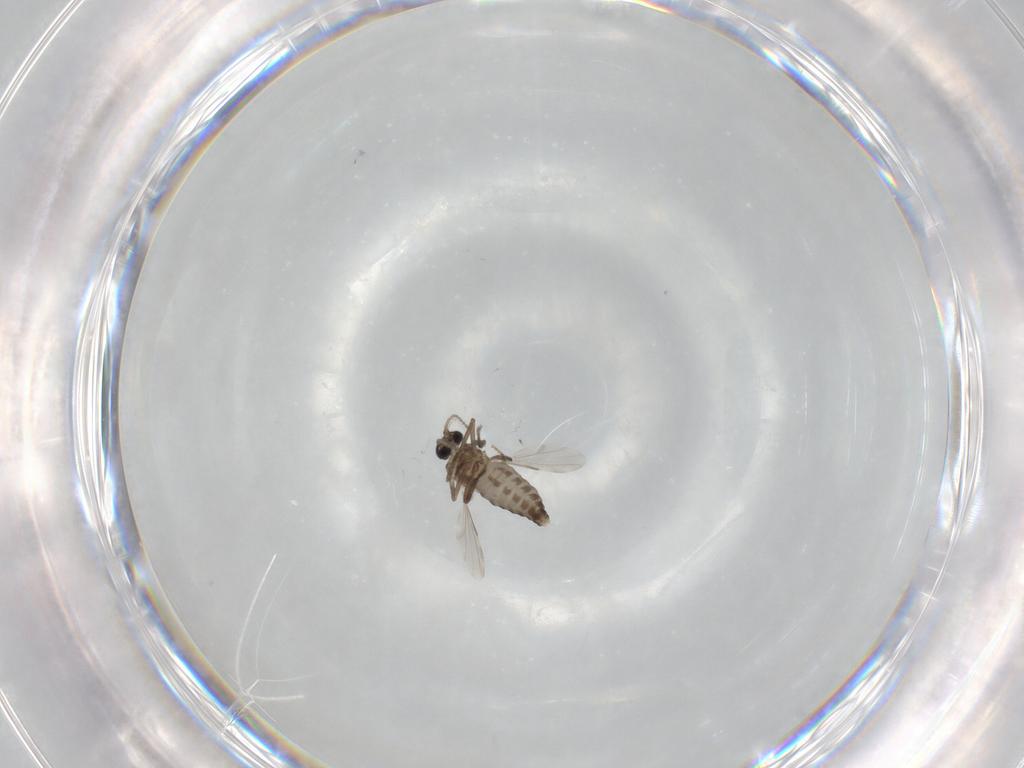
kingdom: Animalia
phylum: Arthropoda
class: Insecta
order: Diptera
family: Ceratopogonidae
